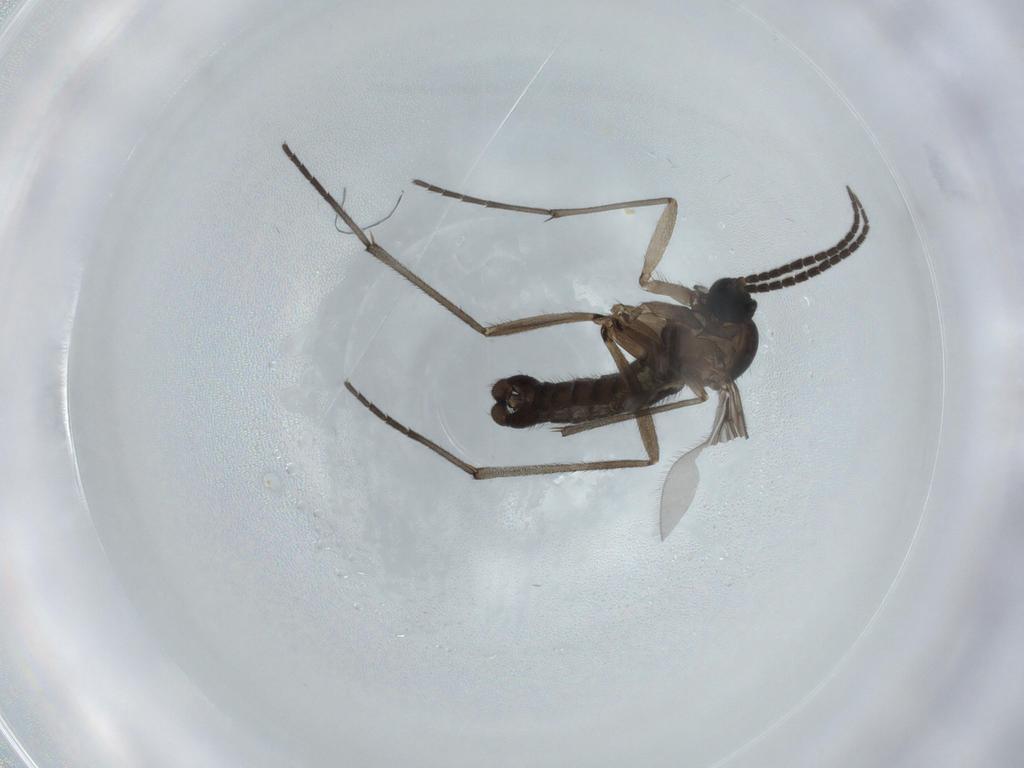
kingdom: Animalia
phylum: Arthropoda
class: Insecta
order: Diptera
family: Sciaridae
